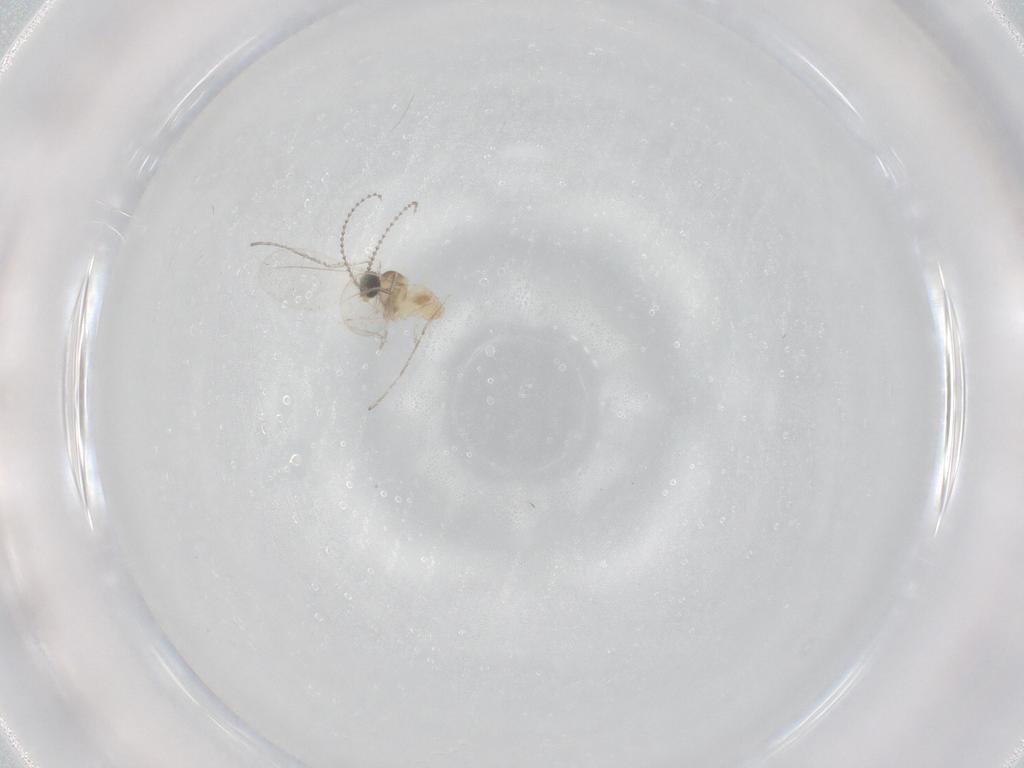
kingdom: Animalia
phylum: Arthropoda
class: Insecta
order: Diptera
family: Cecidomyiidae
